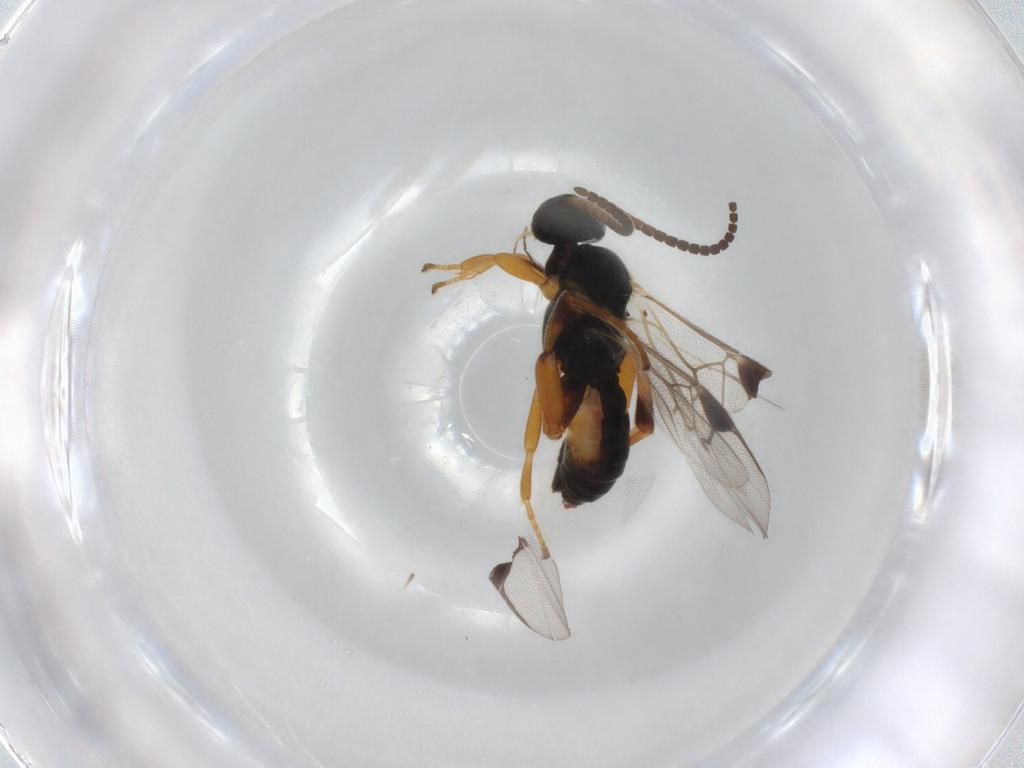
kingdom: Animalia
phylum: Arthropoda
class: Insecta
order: Hymenoptera
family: Braconidae
